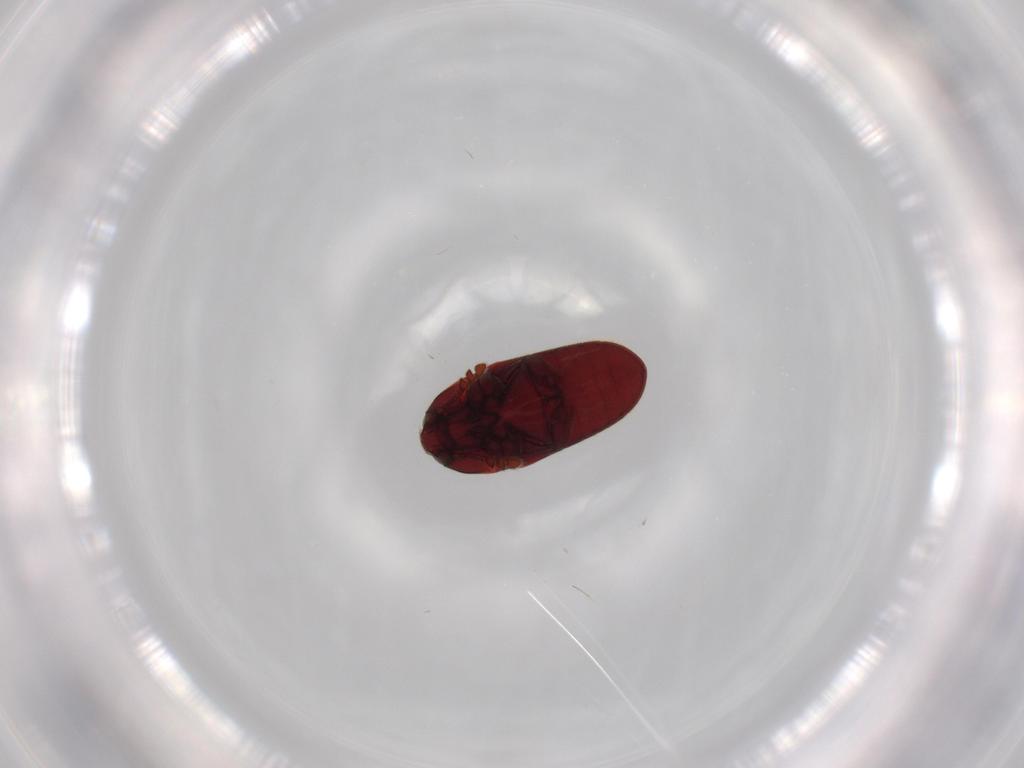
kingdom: Animalia
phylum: Arthropoda
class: Insecta
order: Coleoptera
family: Throscidae
